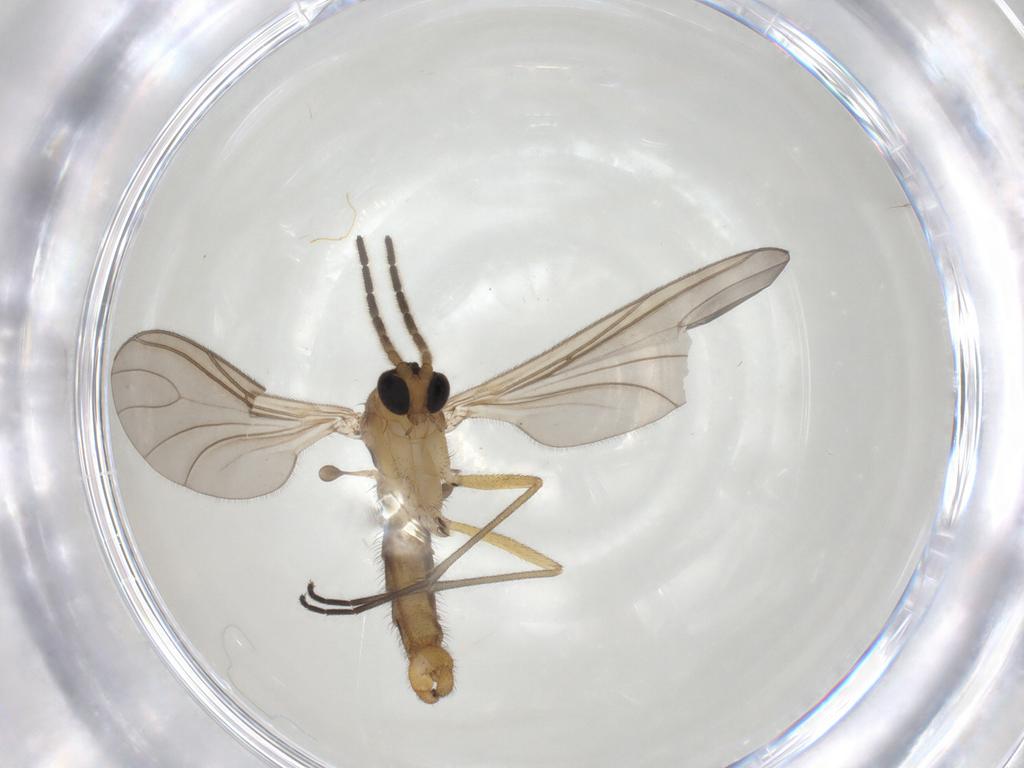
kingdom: Animalia
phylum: Arthropoda
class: Insecta
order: Diptera
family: Sciaridae
